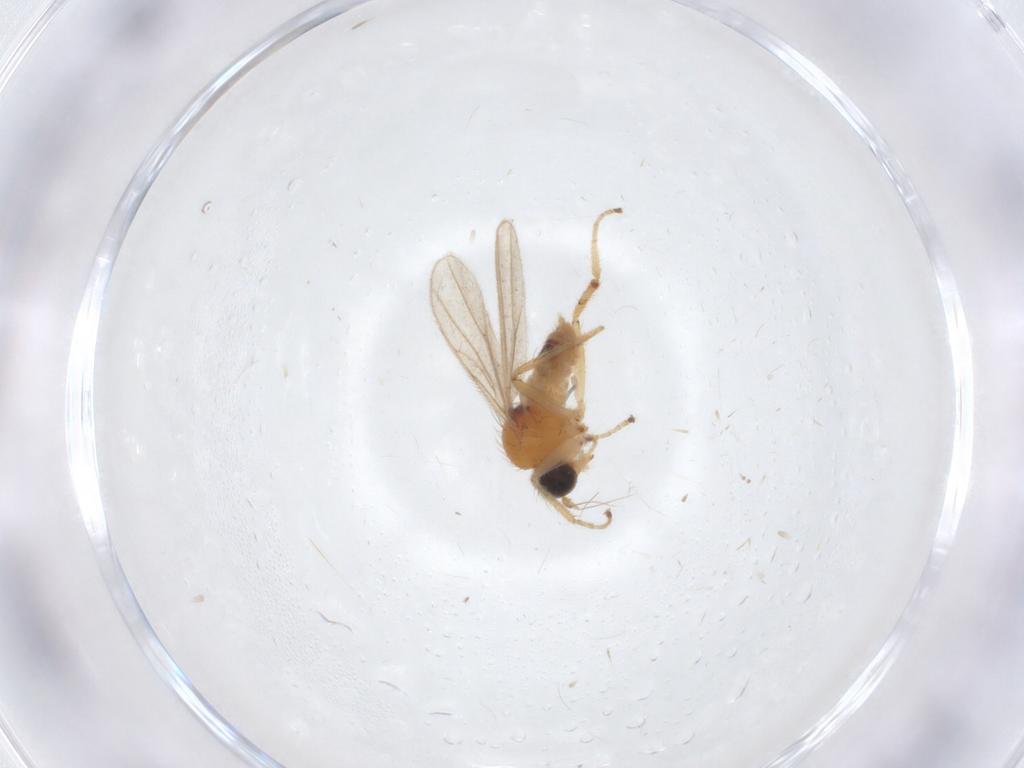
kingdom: Animalia
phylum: Arthropoda
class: Insecta
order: Diptera
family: Hybotidae
